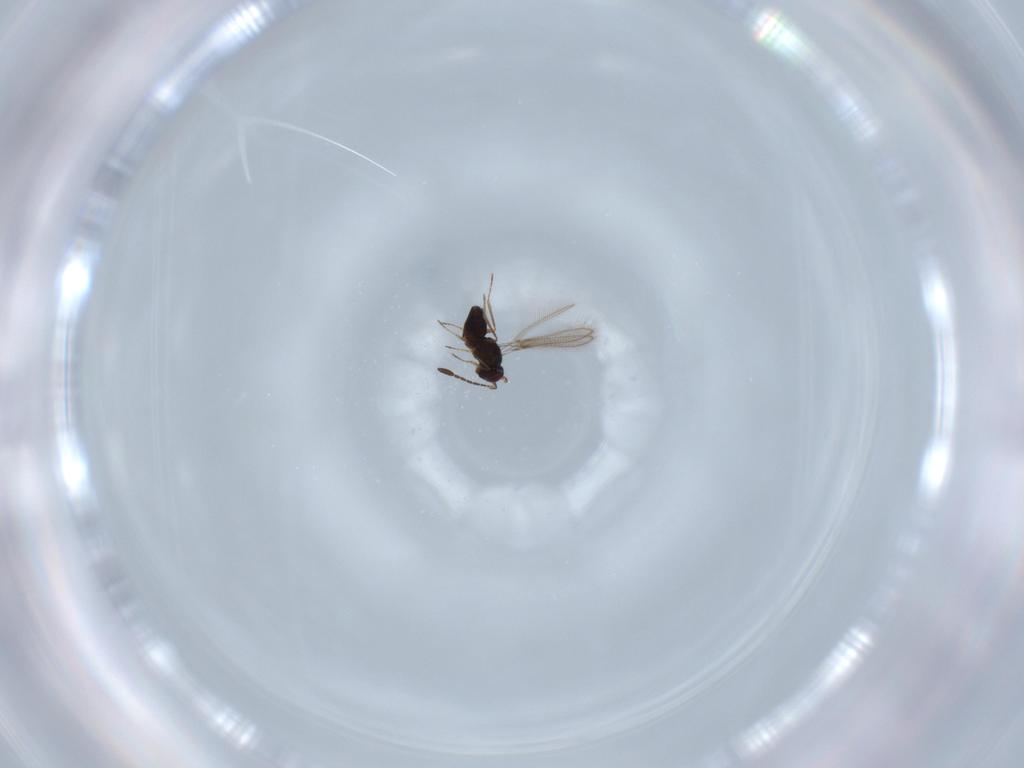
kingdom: Animalia
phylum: Arthropoda
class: Insecta
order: Hymenoptera
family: Mymaridae
